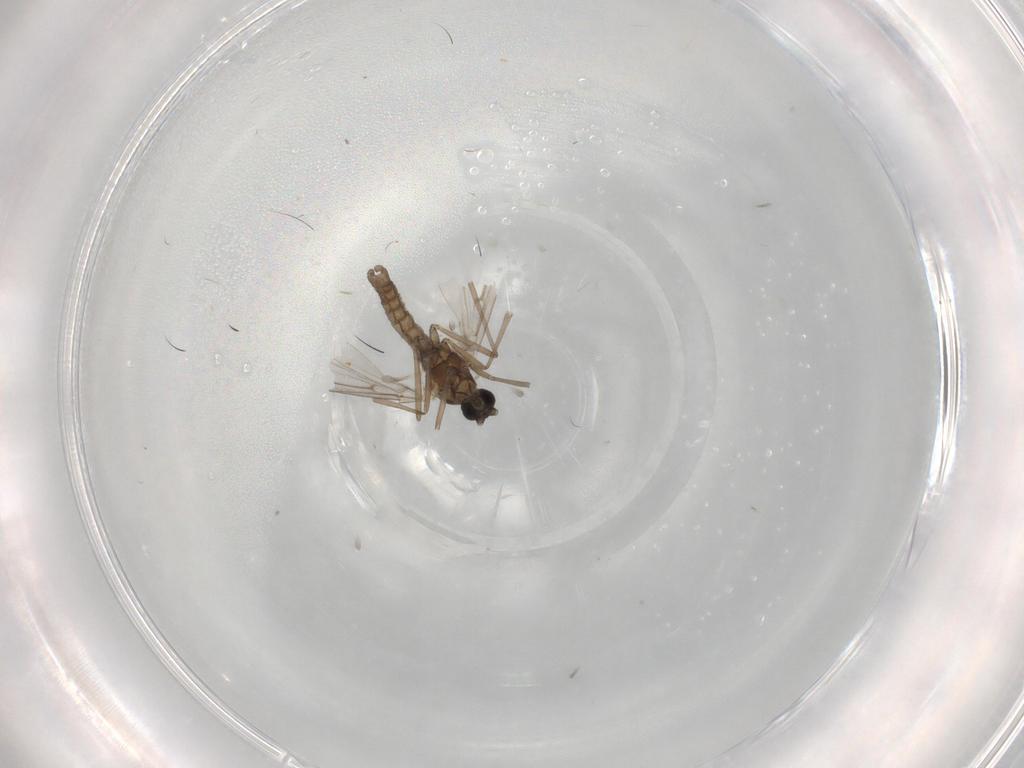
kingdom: Animalia
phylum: Arthropoda
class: Insecta
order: Diptera
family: Cecidomyiidae
